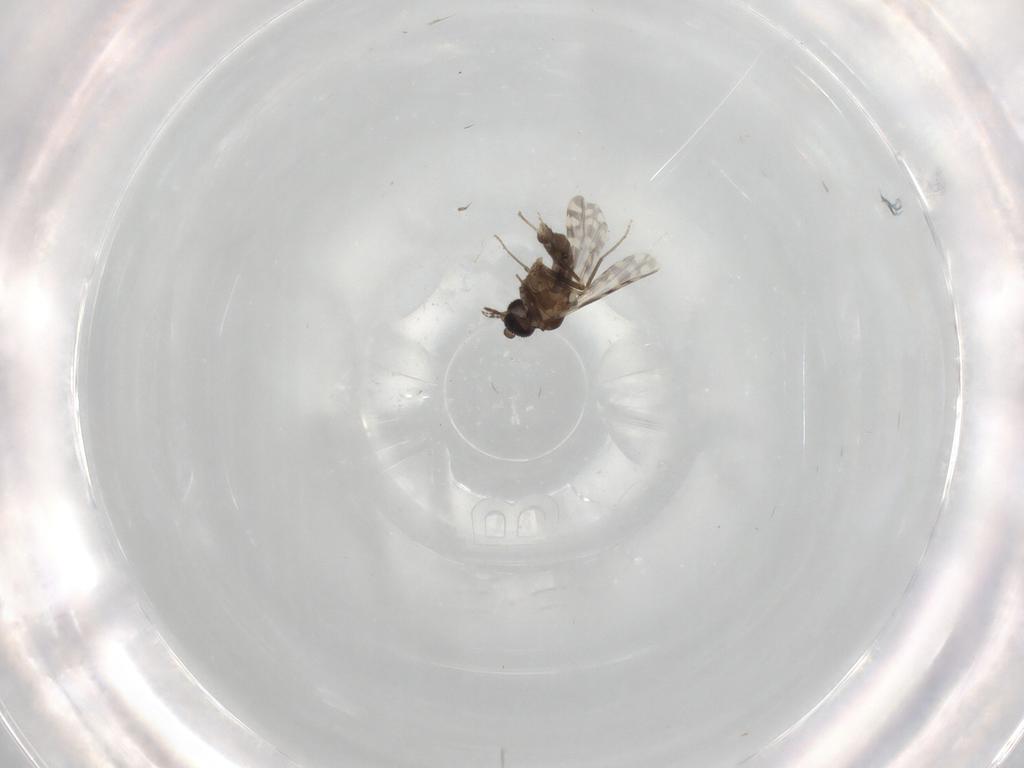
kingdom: Animalia
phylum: Arthropoda
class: Insecta
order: Diptera
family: Ceratopogonidae
